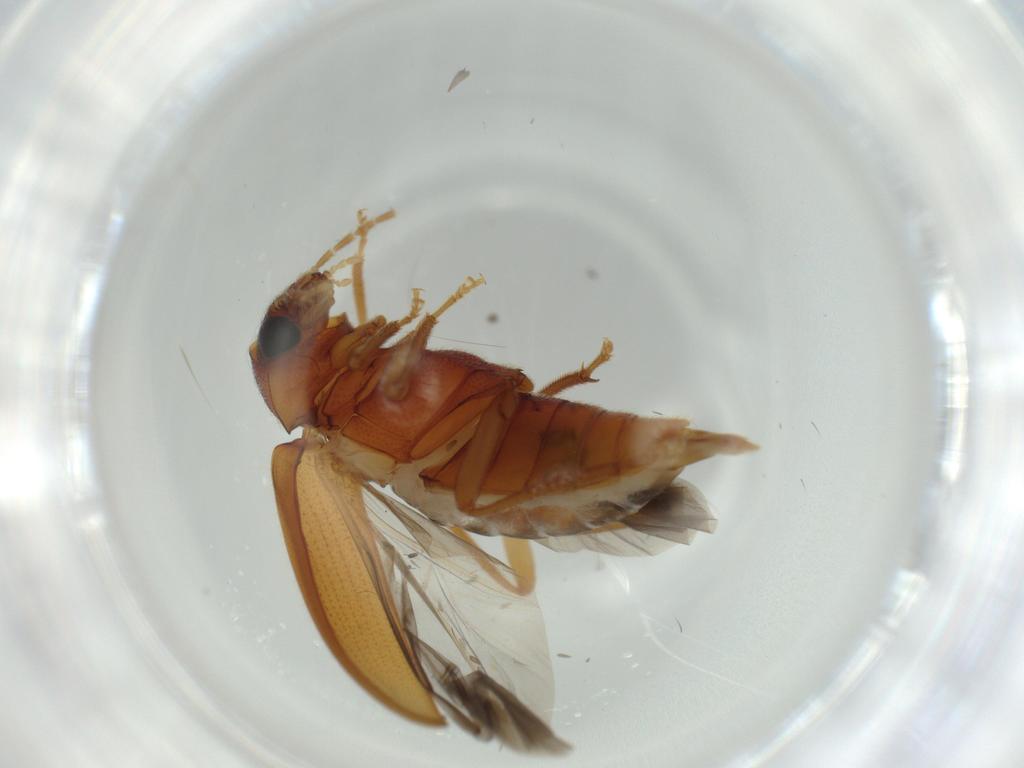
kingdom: Animalia
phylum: Arthropoda
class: Insecta
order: Coleoptera
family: Ptilodactylidae
